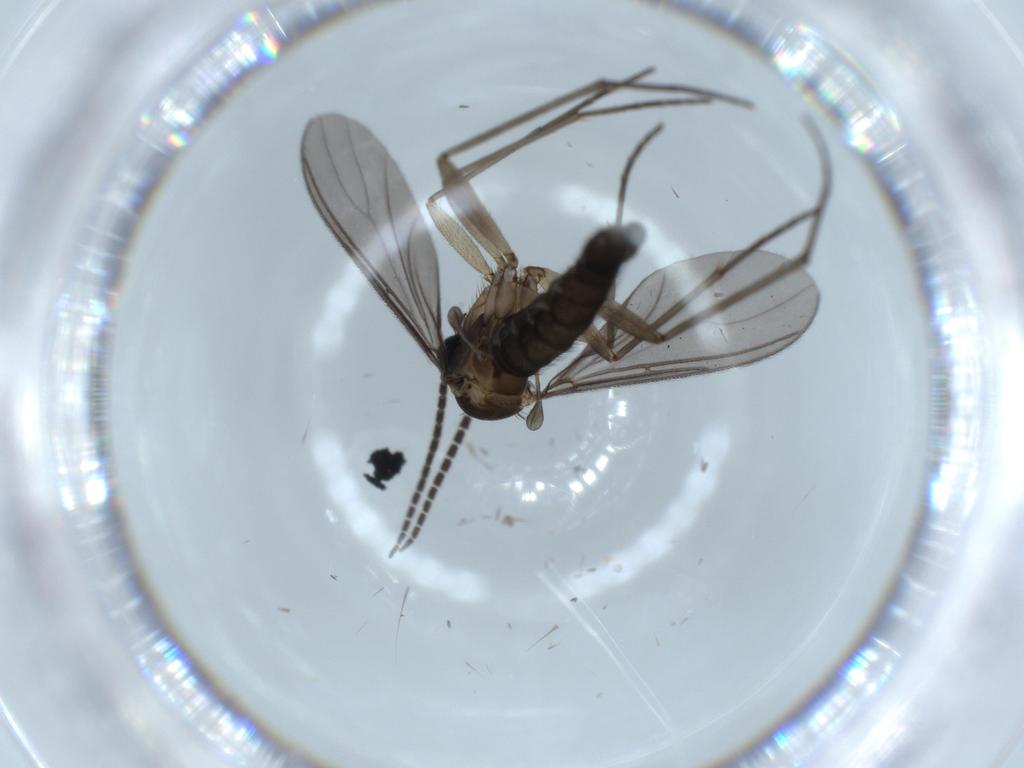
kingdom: Animalia
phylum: Arthropoda
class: Insecta
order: Diptera
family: Sciaridae
